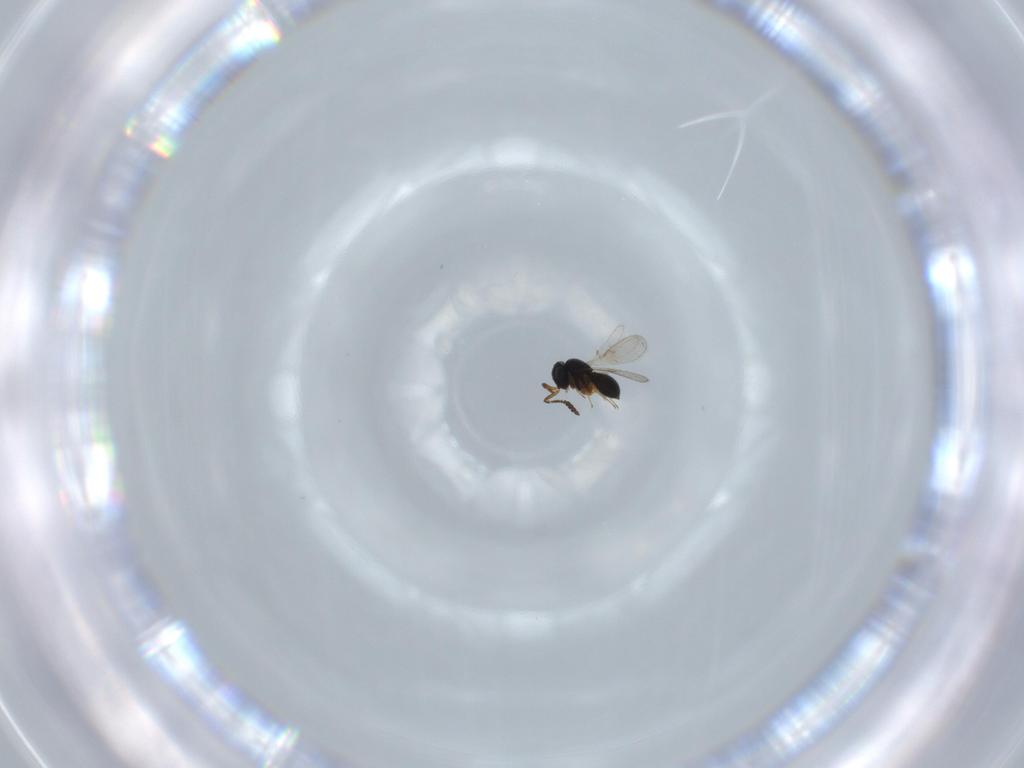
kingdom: Animalia
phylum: Arthropoda
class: Insecta
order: Hymenoptera
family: Scelionidae
